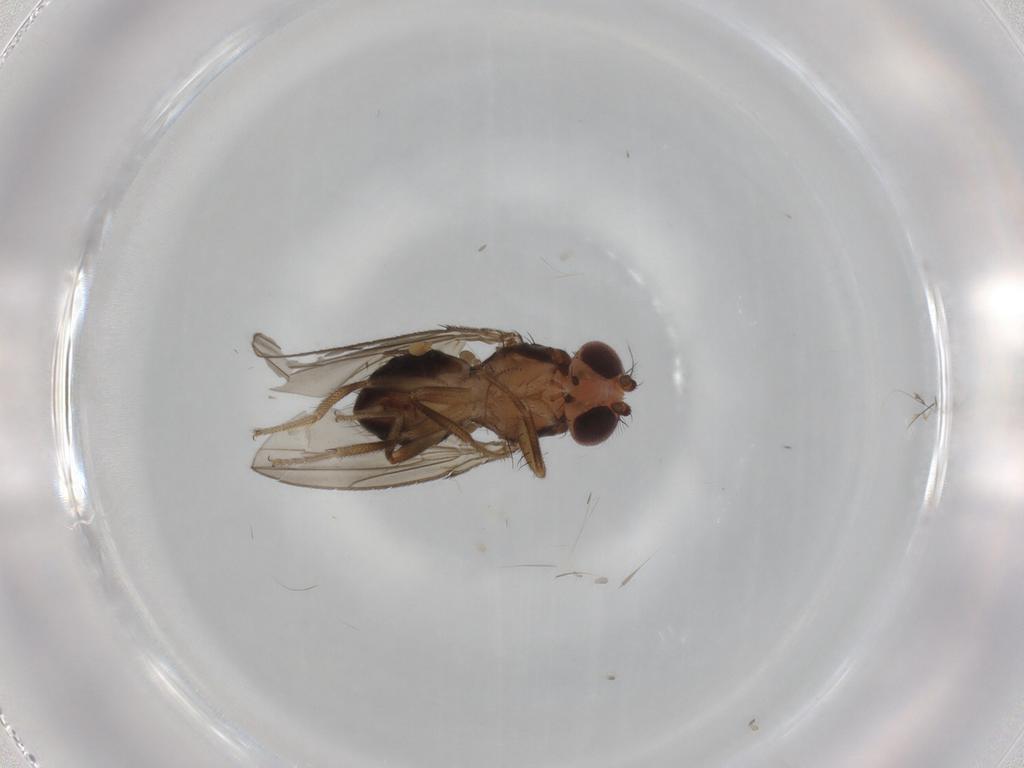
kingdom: Animalia
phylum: Arthropoda
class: Insecta
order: Diptera
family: Drosophilidae
